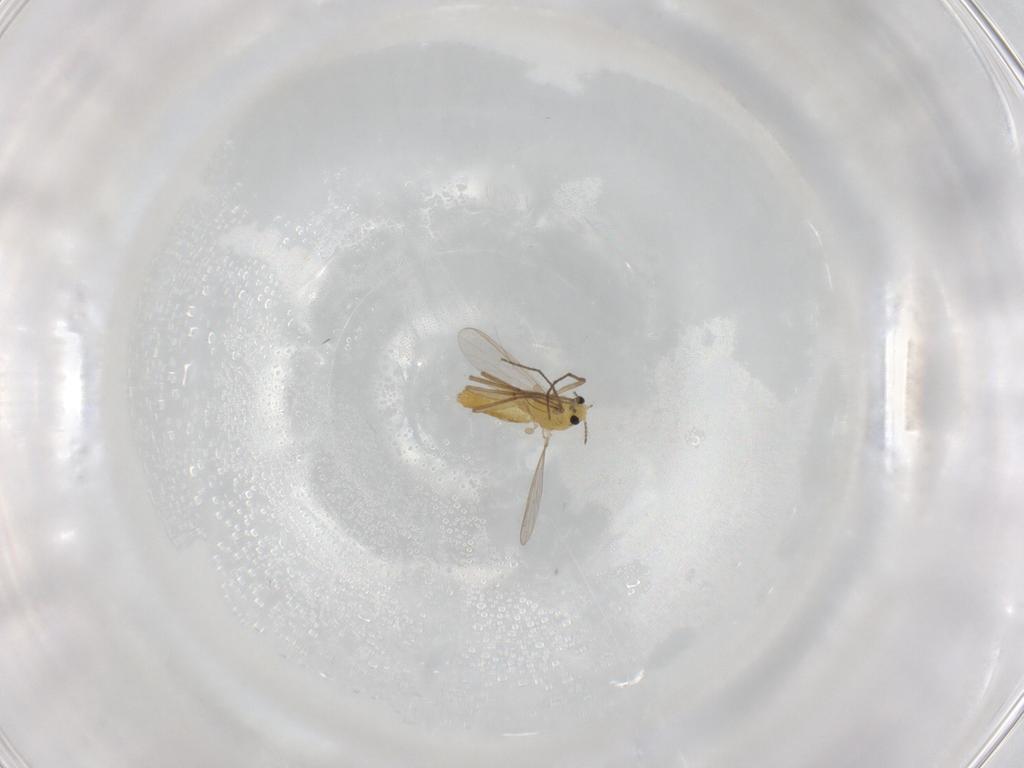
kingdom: Animalia
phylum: Arthropoda
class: Insecta
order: Diptera
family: Chironomidae
